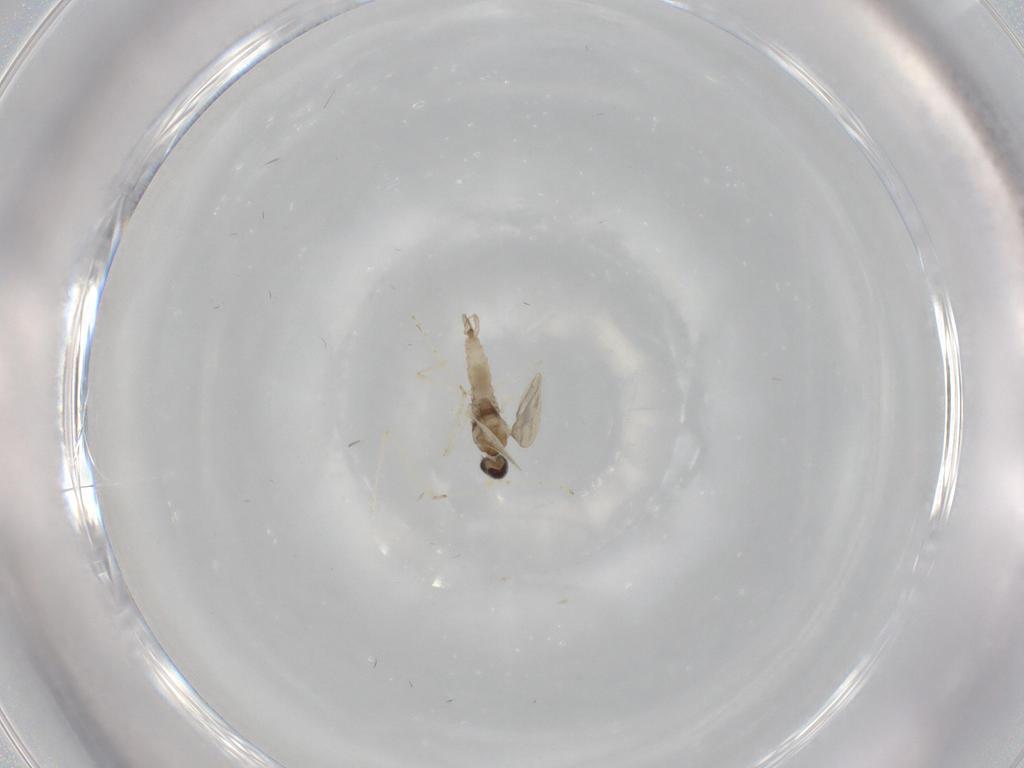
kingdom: Animalia
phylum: Arthropoda
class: Insecta
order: Diptera
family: Cecidomyiidae
